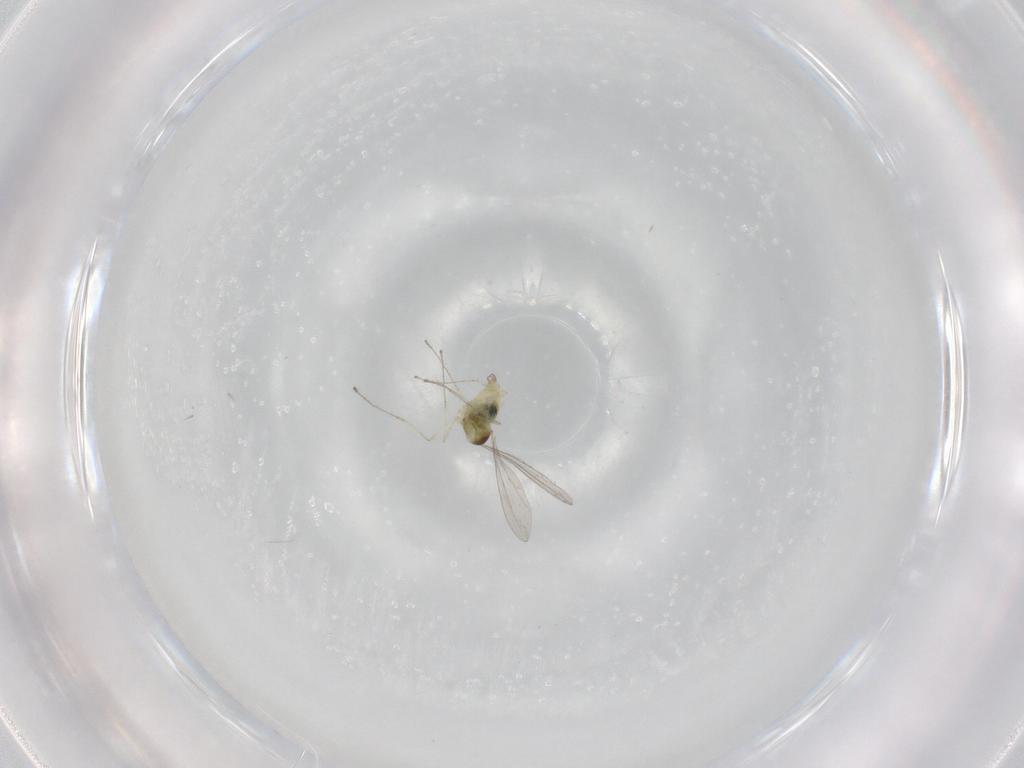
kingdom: Animalia
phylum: Arthropoda
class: Insecta
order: Diptera
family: Cecidomyiidae
